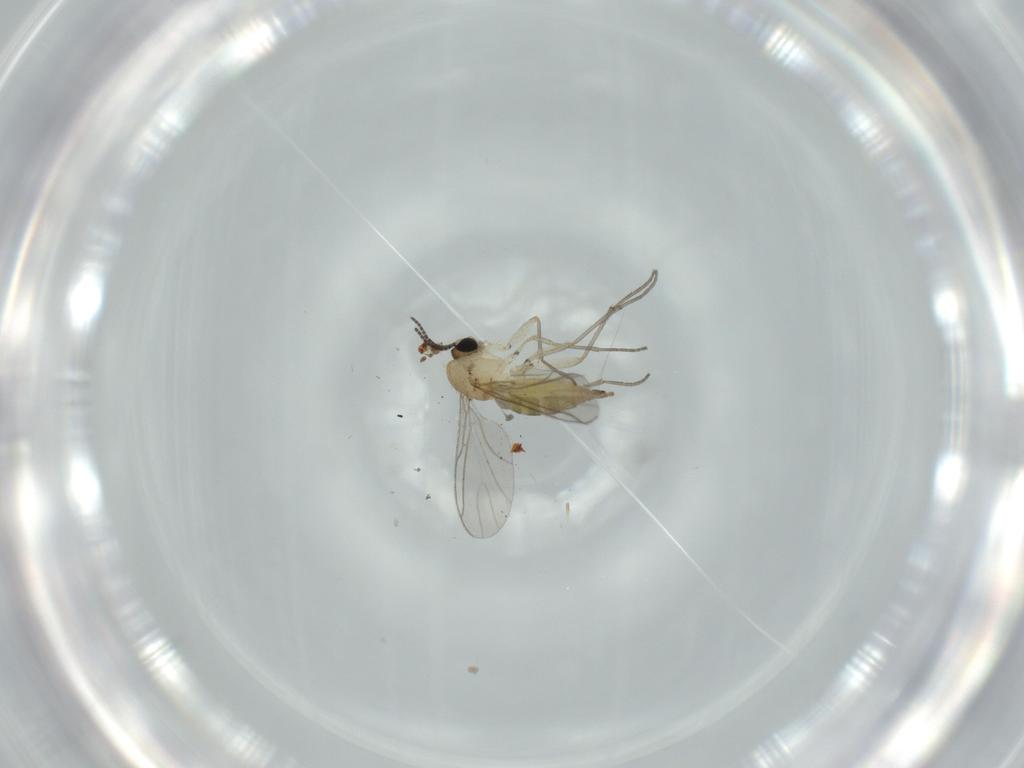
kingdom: Animalia
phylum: Arthropoda
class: Insecta
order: Diptera
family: Sciaridae
